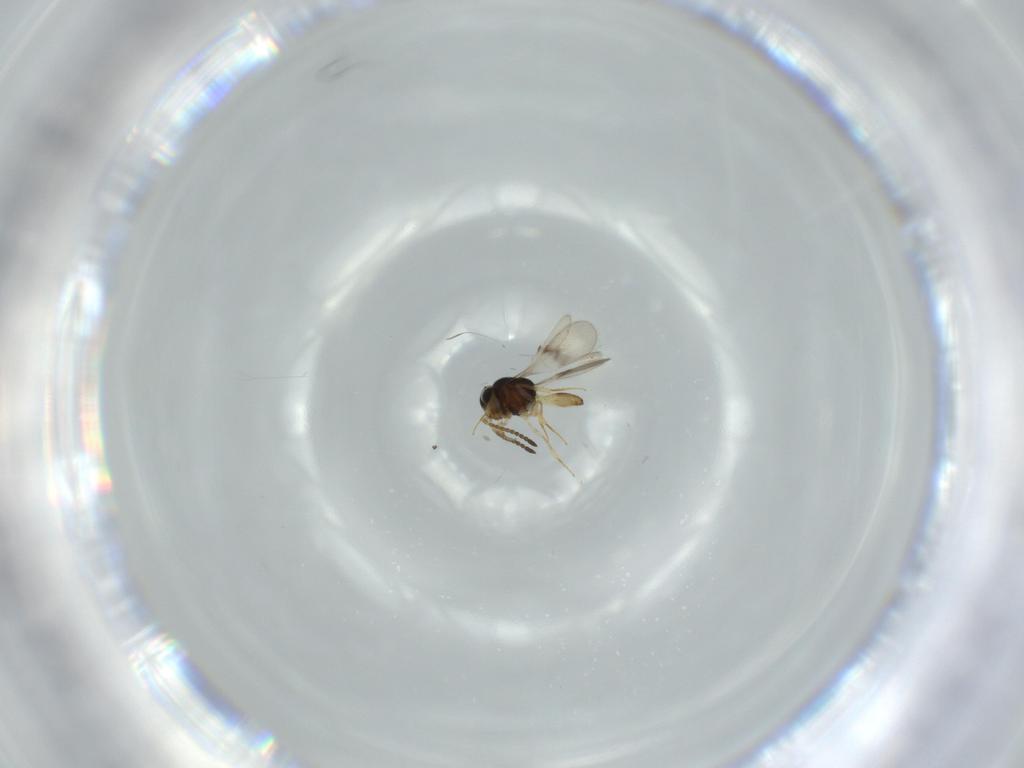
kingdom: Animalia
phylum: Arthropoda
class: Insecta
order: Hymenoptera
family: Scelionidae
